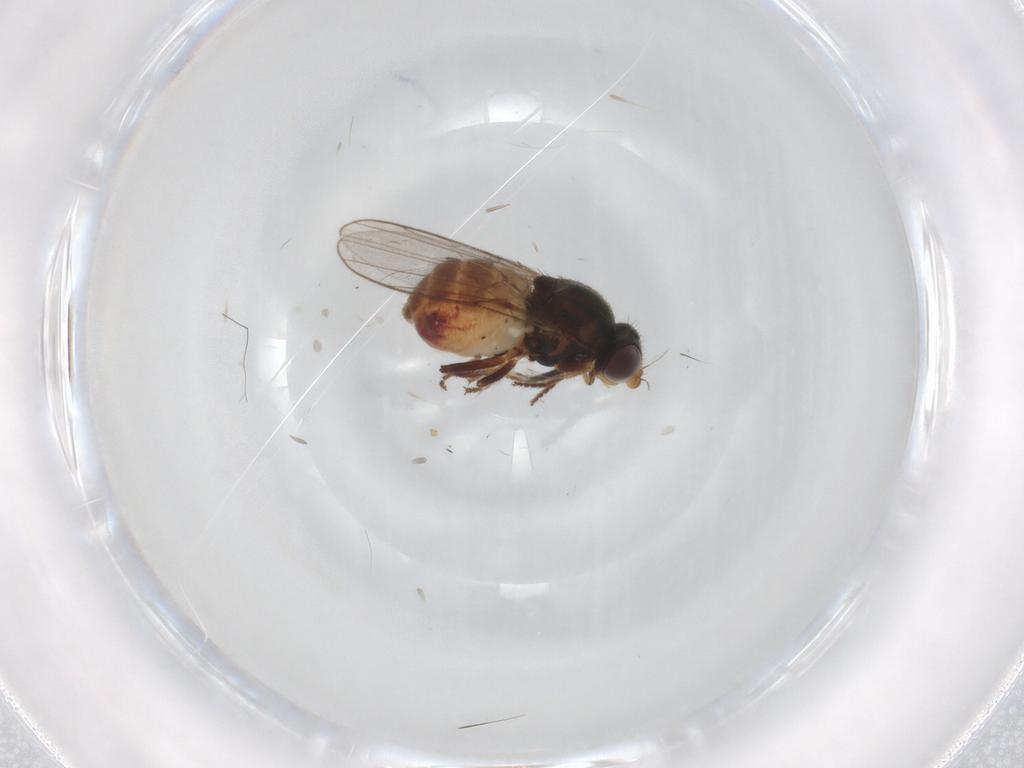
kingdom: Animalia
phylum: Arthropoda
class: Insecta
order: Diptera
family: Chloropidae
